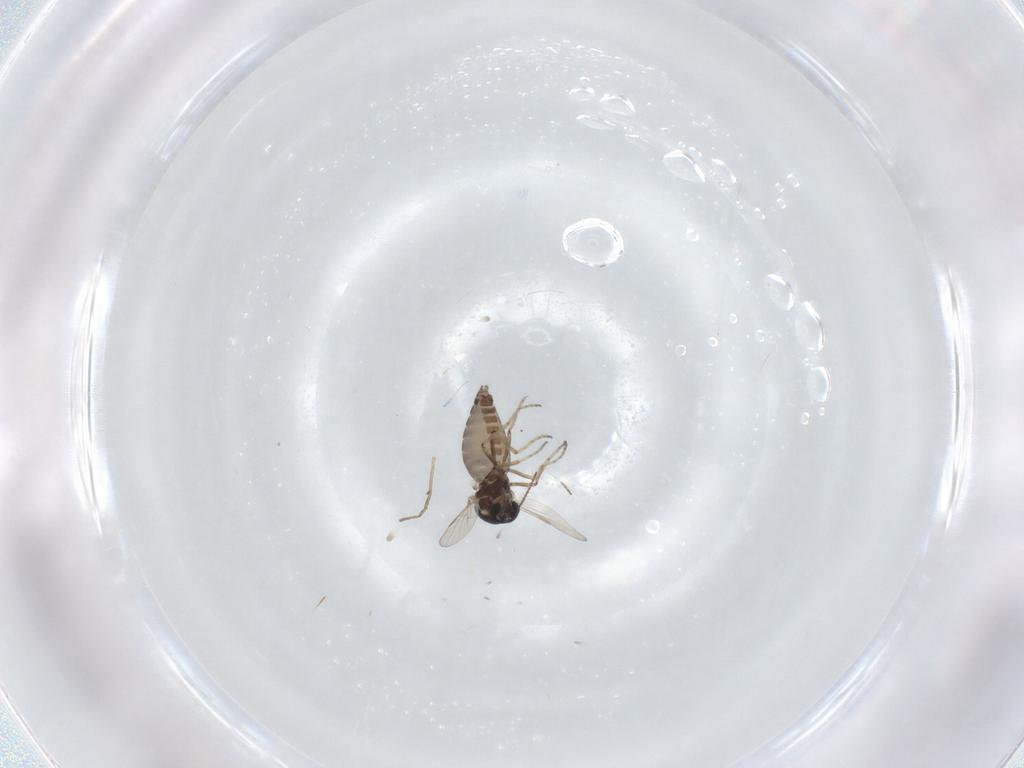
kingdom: Animalia
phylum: Arthropoda
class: Insecta
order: Diptera
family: Ceratopogonidae
